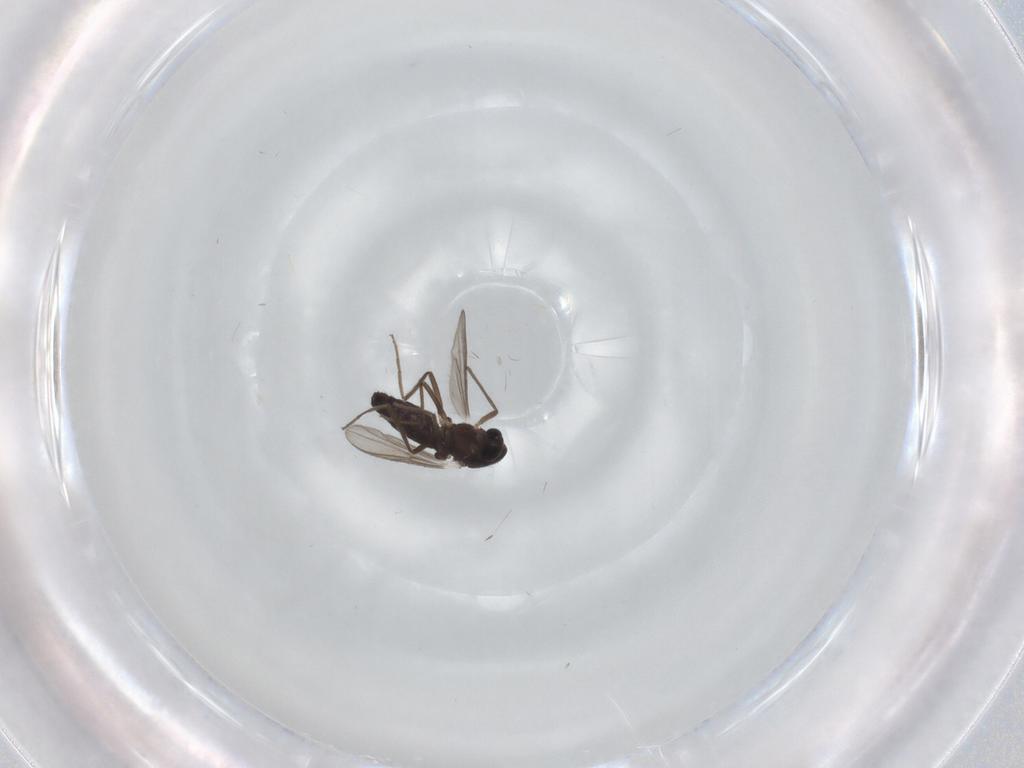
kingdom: Animalia
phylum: Arthropoda
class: Insecta
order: Diptera
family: Chironomidae
